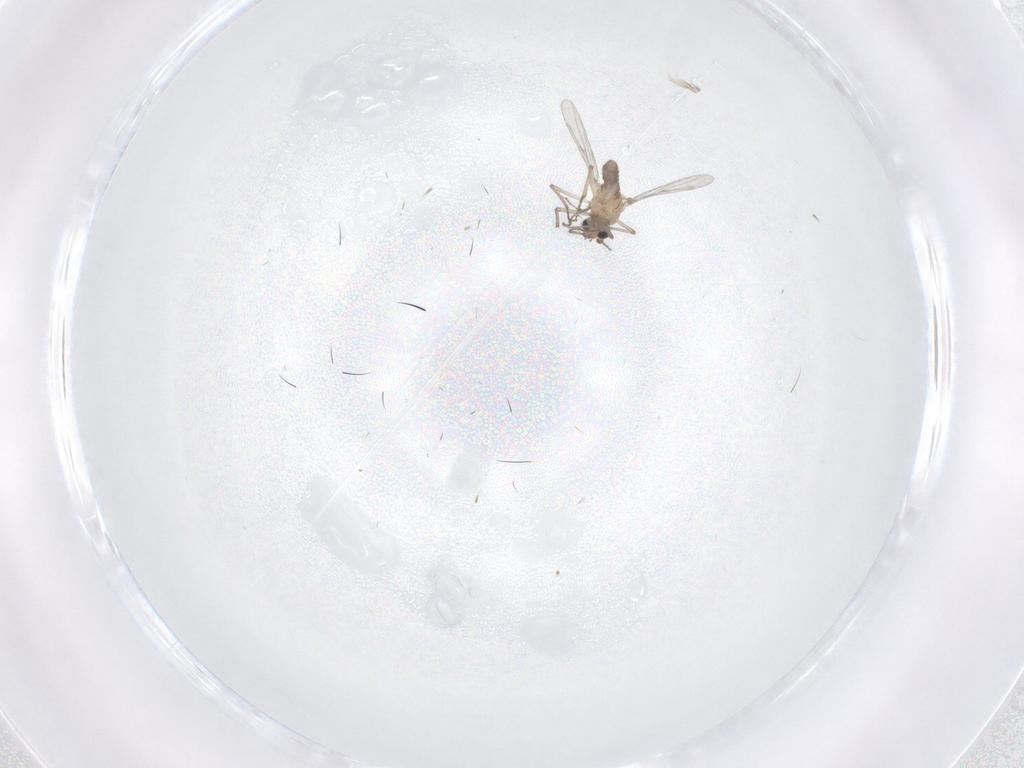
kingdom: Animalia
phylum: Arthropoda
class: Insecta
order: Diptera
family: Ceratopogonidae
